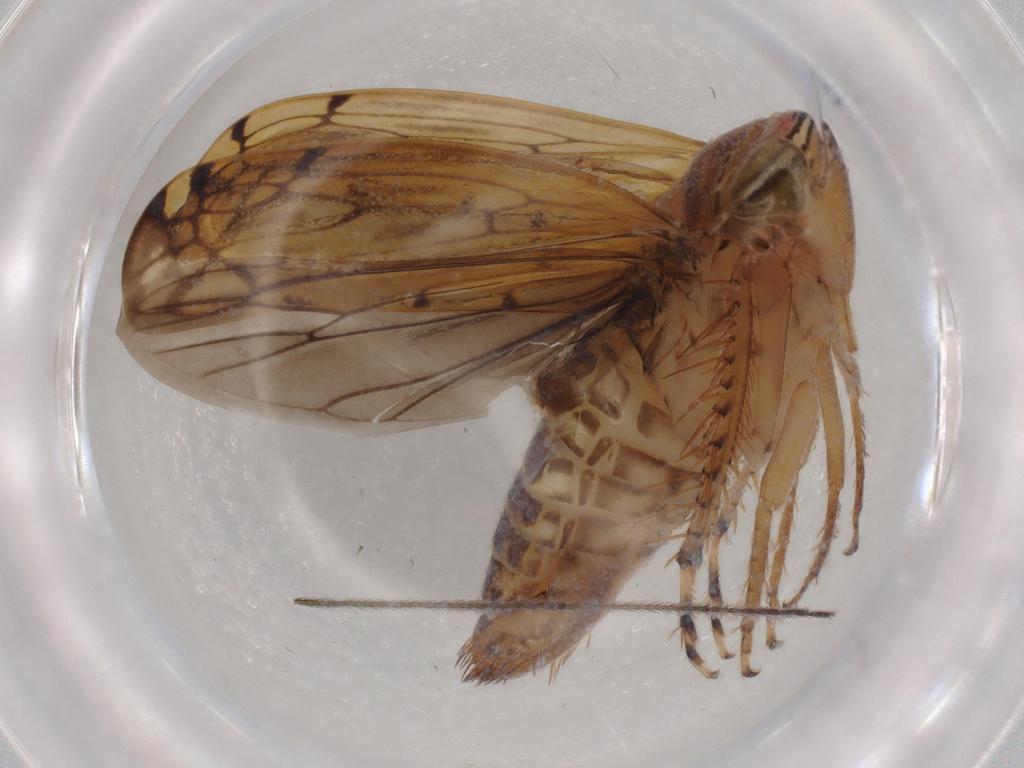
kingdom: Animalia
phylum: Arthropoda
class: Insecta
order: Hemiptera
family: Cicadellidae
